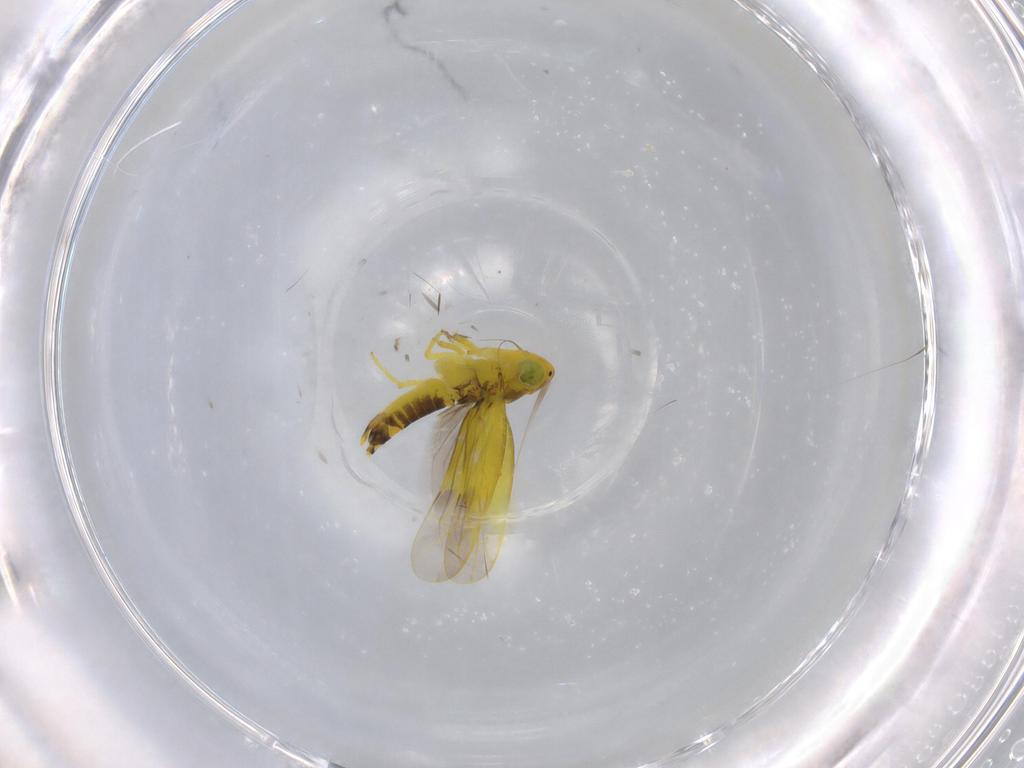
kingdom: Animalia
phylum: Arthropoda
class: Insecta
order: Hemiptera
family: Cicadellidae
